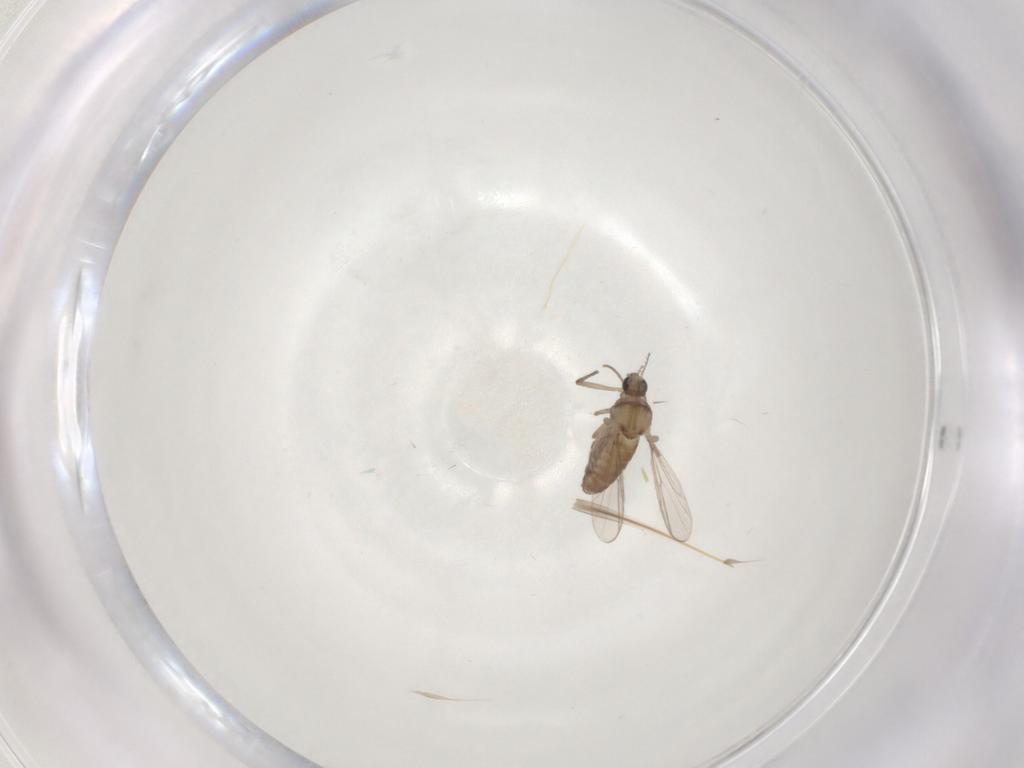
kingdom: Animalia
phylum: Arthropoda
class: Insecta
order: Diptera
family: Chironomidae
